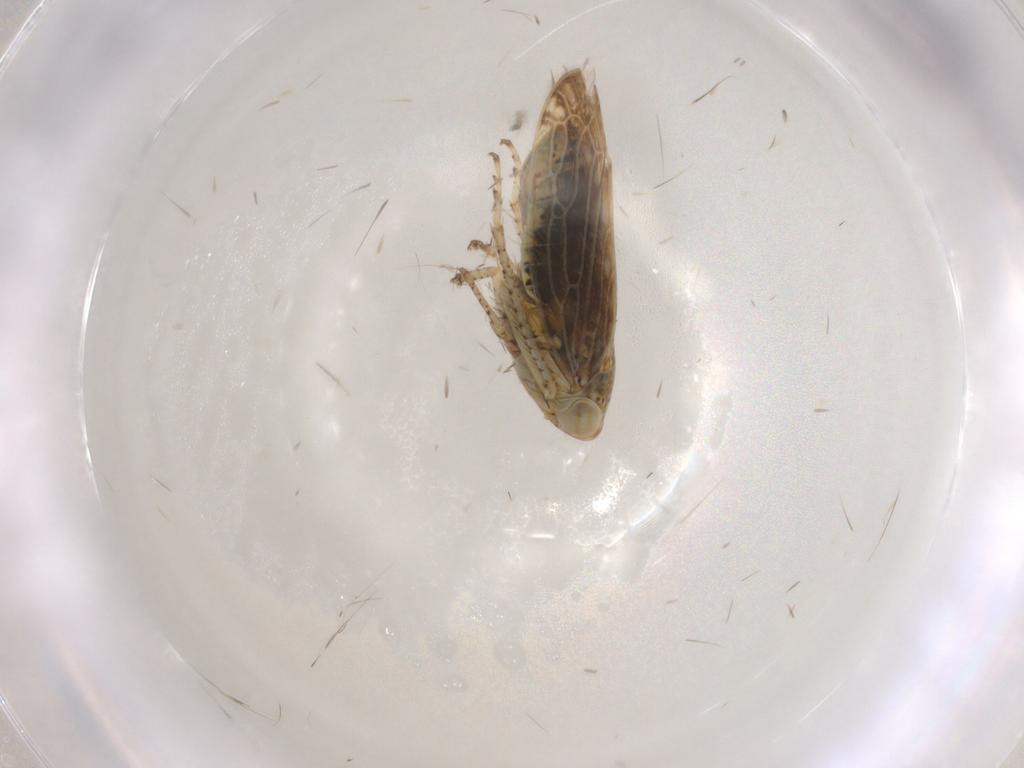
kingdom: Animalia
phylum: Arthropoda
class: Insecta
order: Hemiptera
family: Cicadellidae
